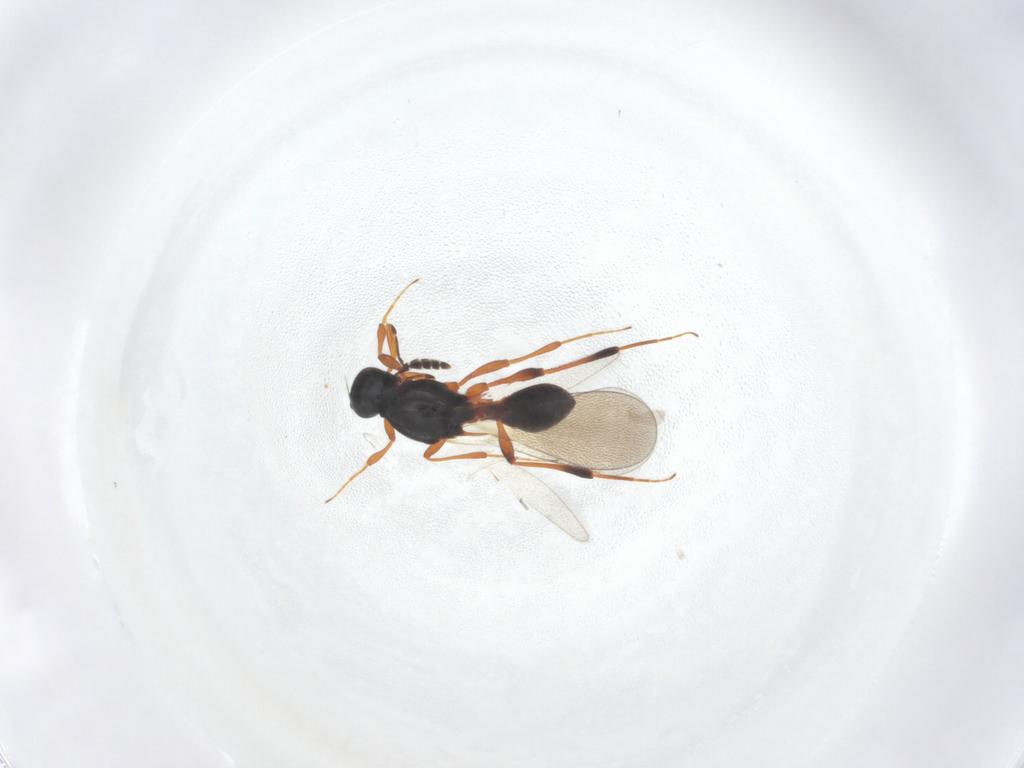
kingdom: Animalia
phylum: Arthropoda
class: Insecta
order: Hymenoptera
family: Platygastridae
